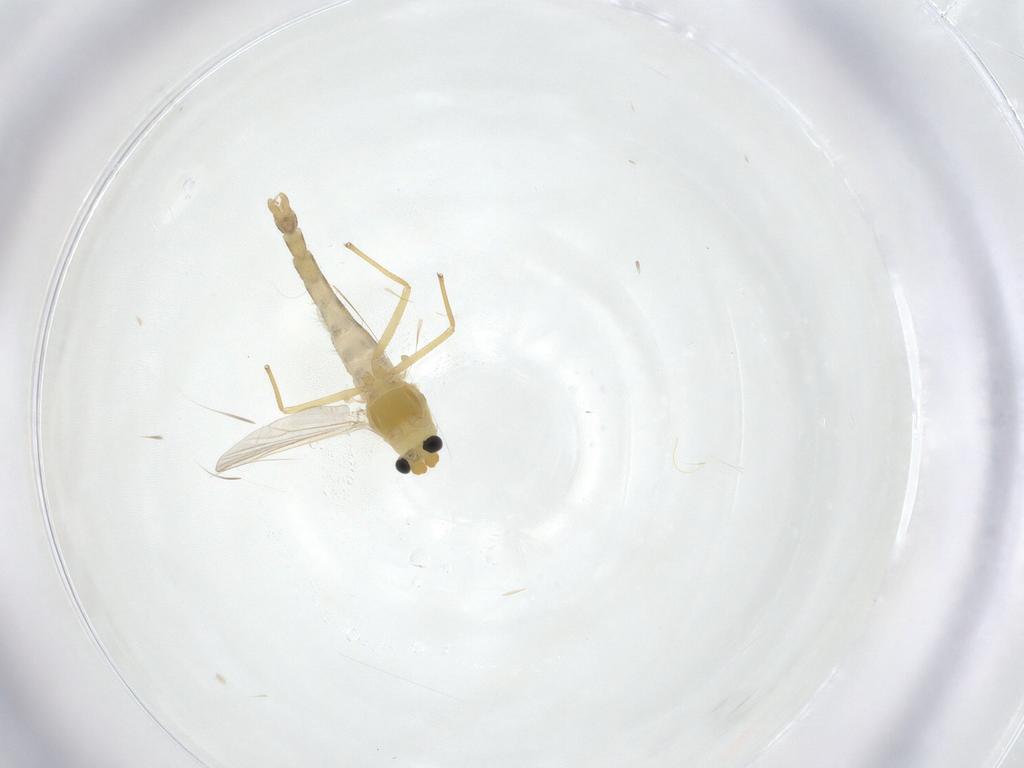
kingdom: Animalia
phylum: Arthropoda
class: Insecta
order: Diptera
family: Chironomidae
